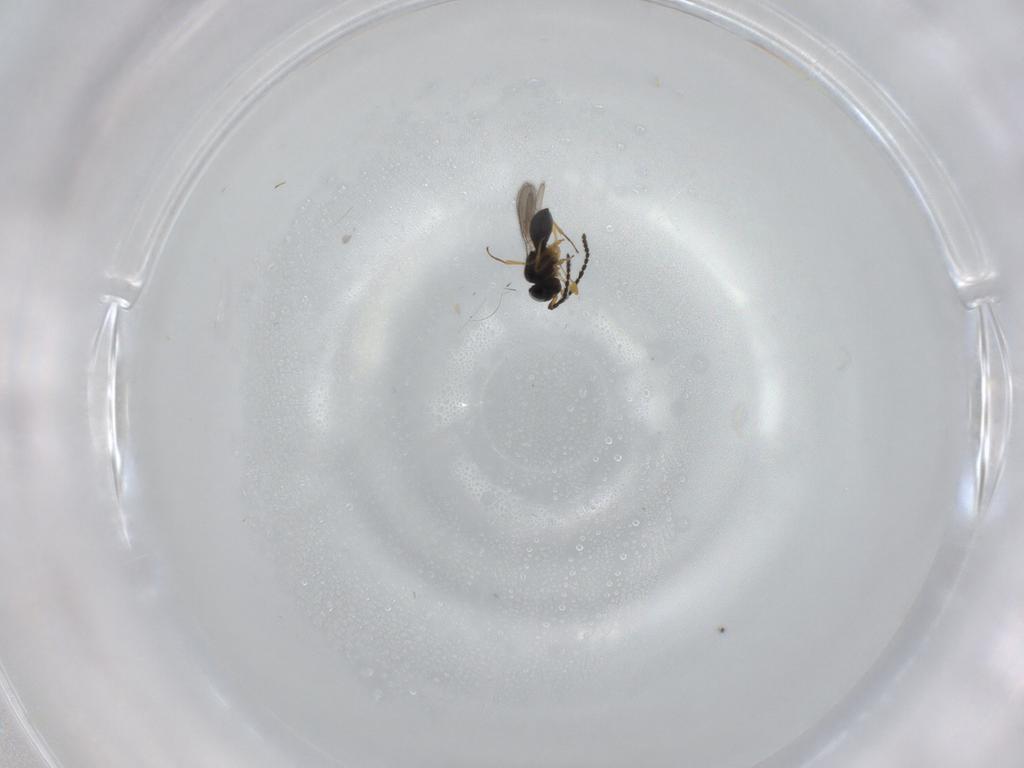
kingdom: Animalia
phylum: Arthropoda
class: Insecta
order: Hymenoptera
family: Scelionidae
